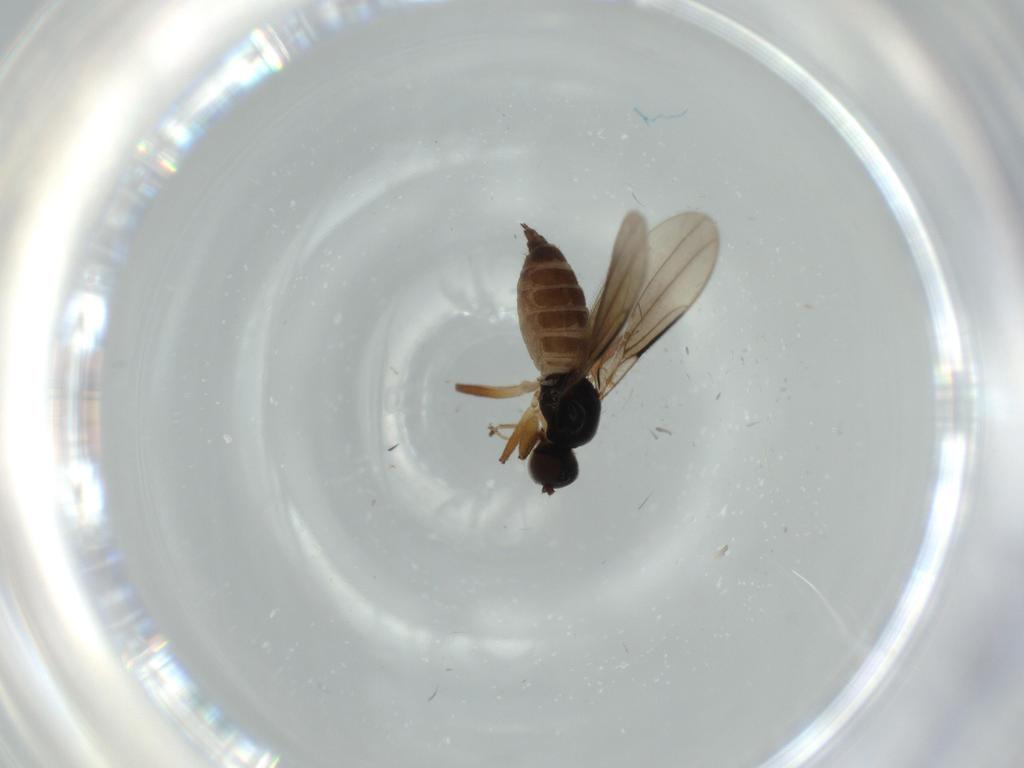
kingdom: Animalia
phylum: Arthropoda
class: Insecta
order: Diptera
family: Hybotidae
